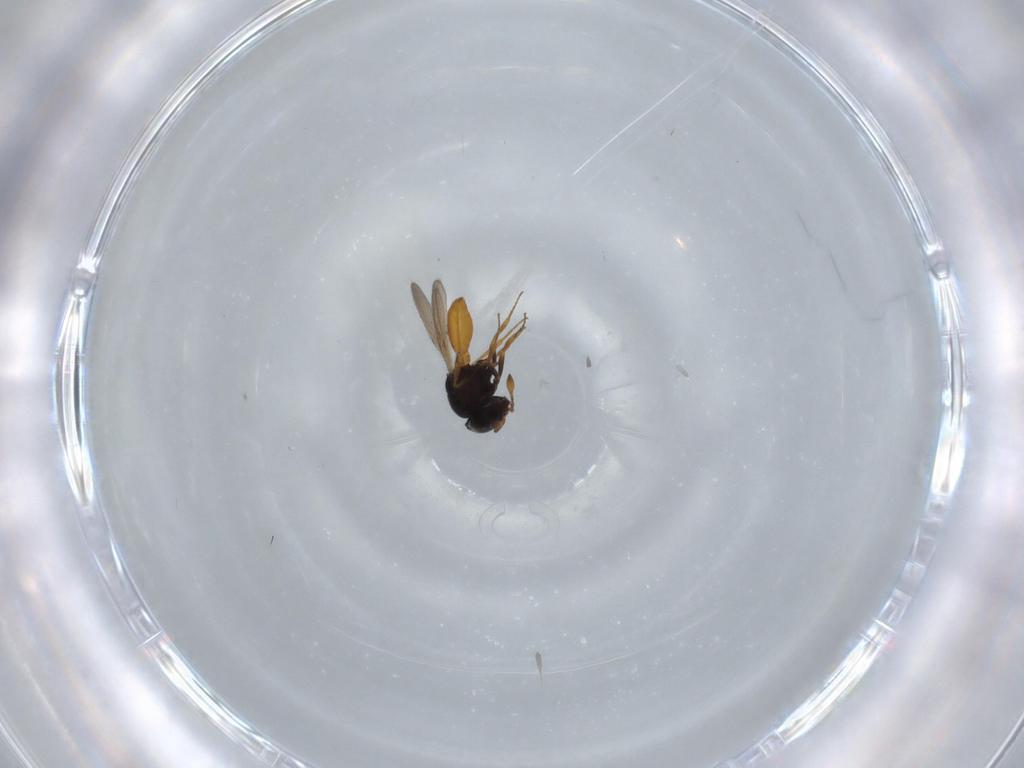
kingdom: Animalia
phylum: Arthropoda
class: Insecta
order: Hymenoptera
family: Scelionidae
